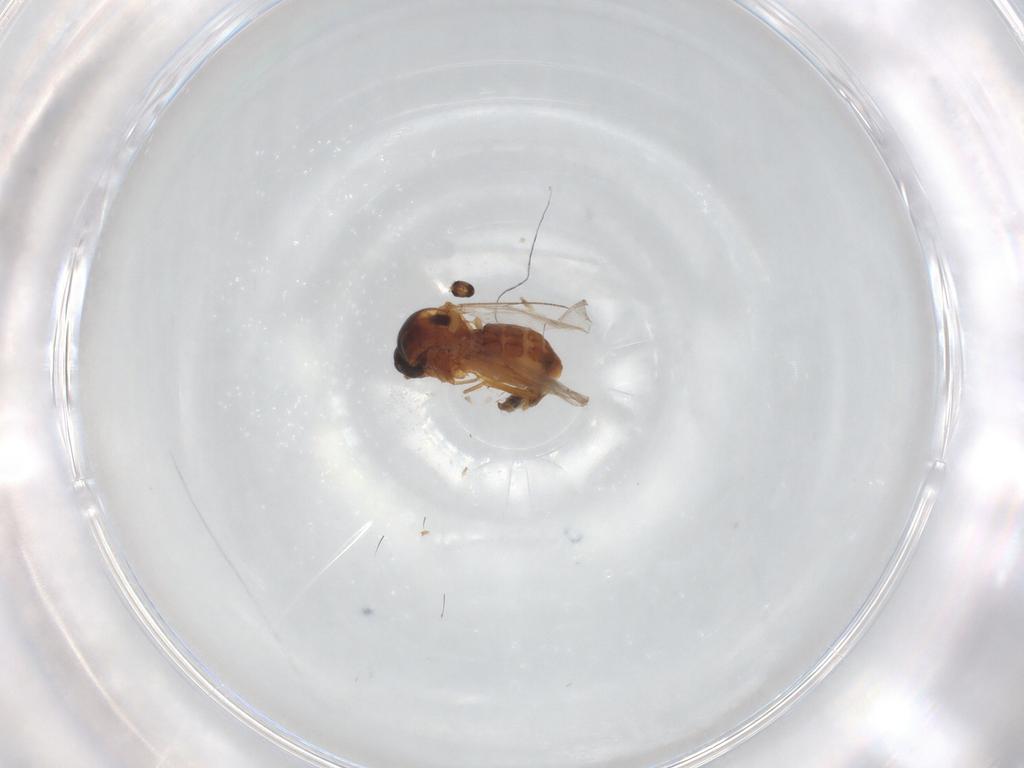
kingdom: Animalia
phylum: Arthropoda
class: Insecta
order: Diptera
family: Ceratopogonidae
